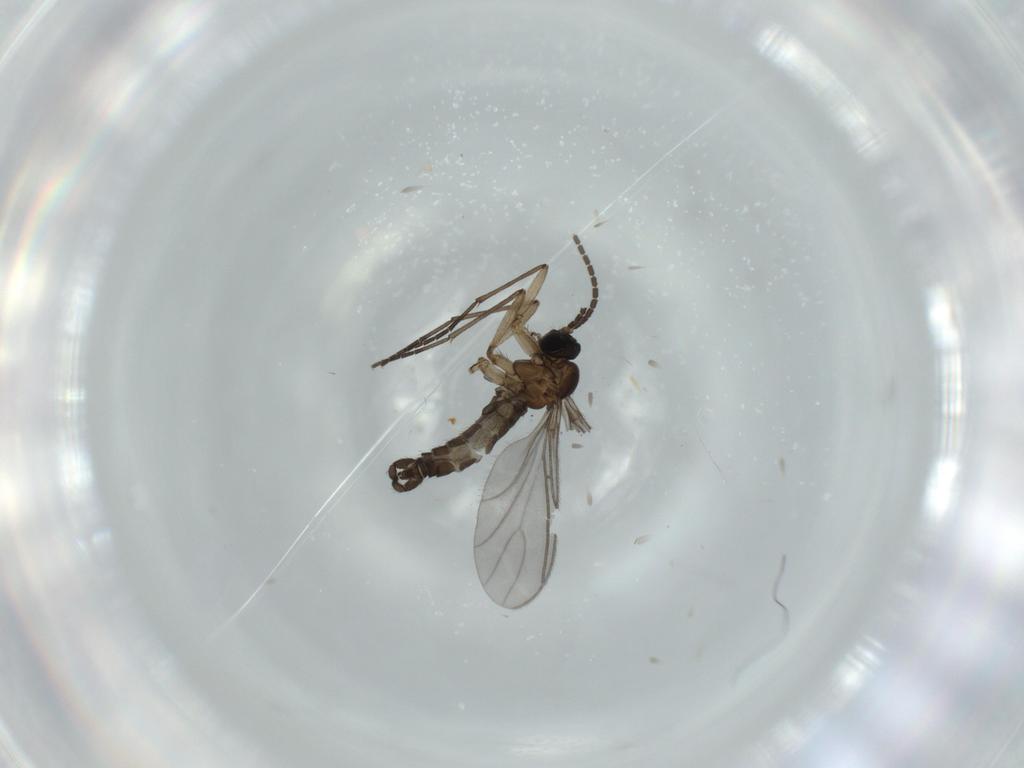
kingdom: Animalia
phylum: Arthropoda
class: Insecta
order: Diptera
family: Sciaridae
